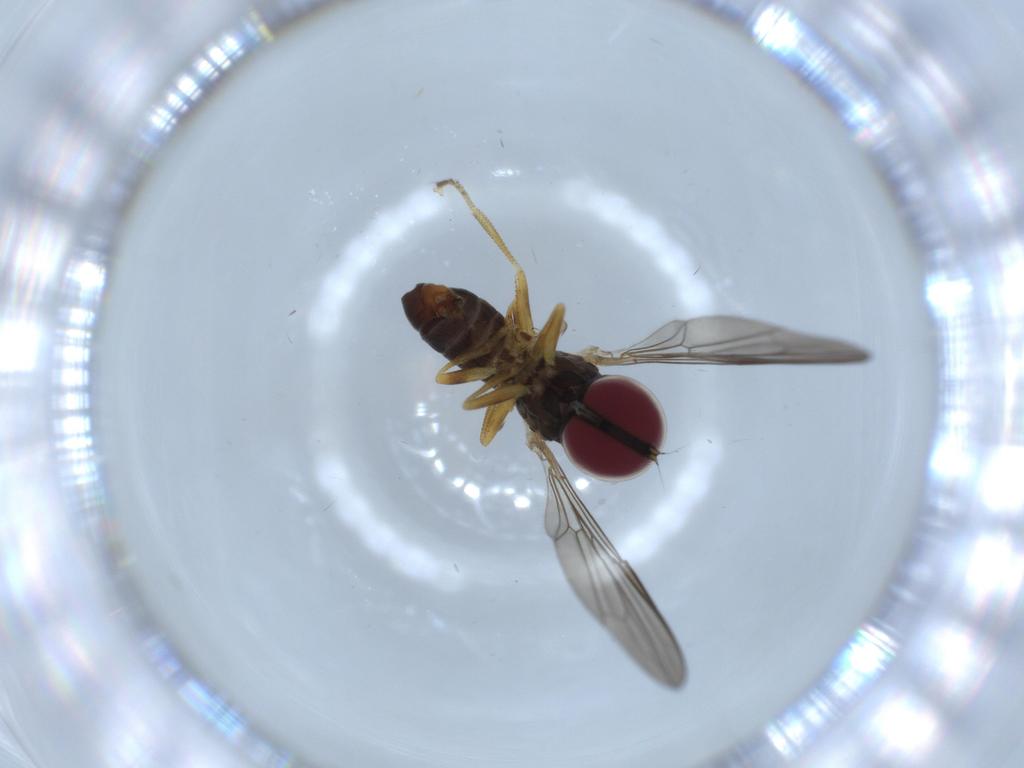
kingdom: Animalia
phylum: Arthropoda
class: Insecta
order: Diptera
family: Pipunculidae
